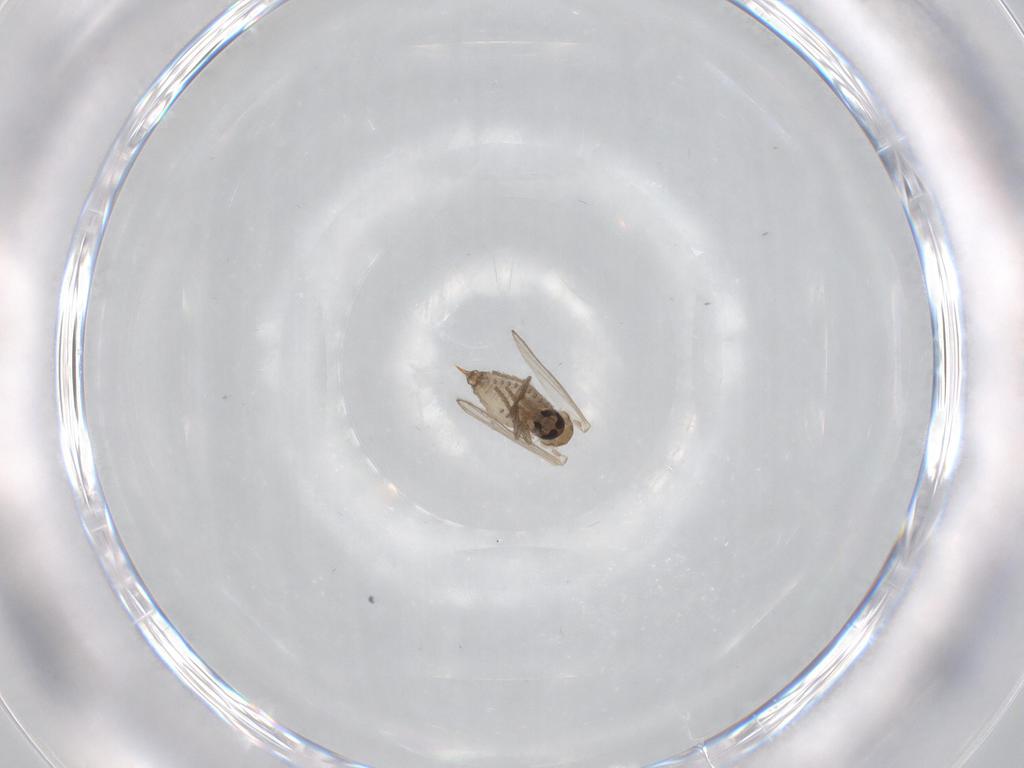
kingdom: Animalia
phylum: Arthropoda
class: Insecta
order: Diptera
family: Psychodidae
